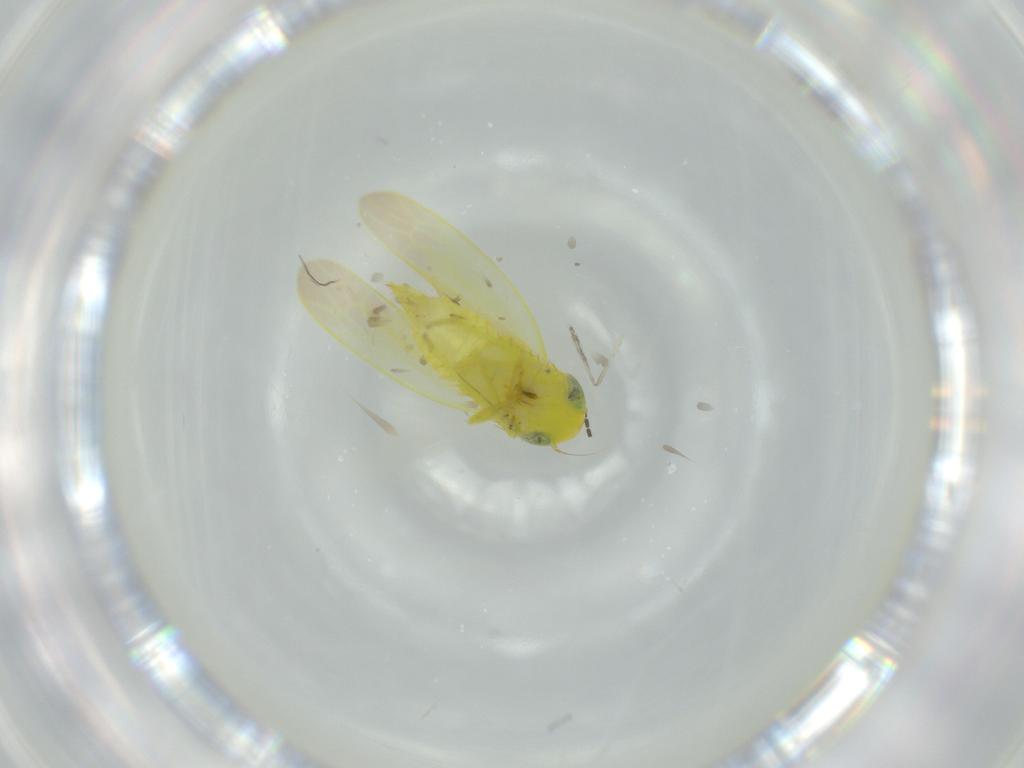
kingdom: Animalia
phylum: Arthropoda
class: Insecta
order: Hemiptera
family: Cicadellidae
